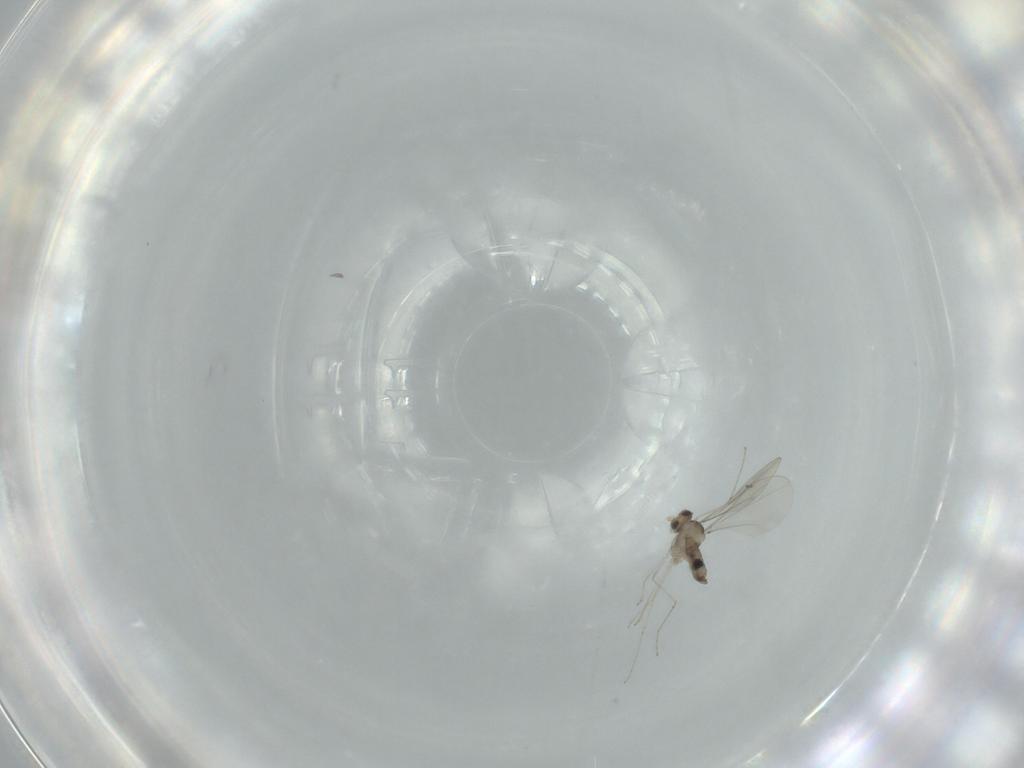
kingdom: Animalia
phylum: Arthropoda
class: Insecta
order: Diptera
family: Cecidomyiidae
